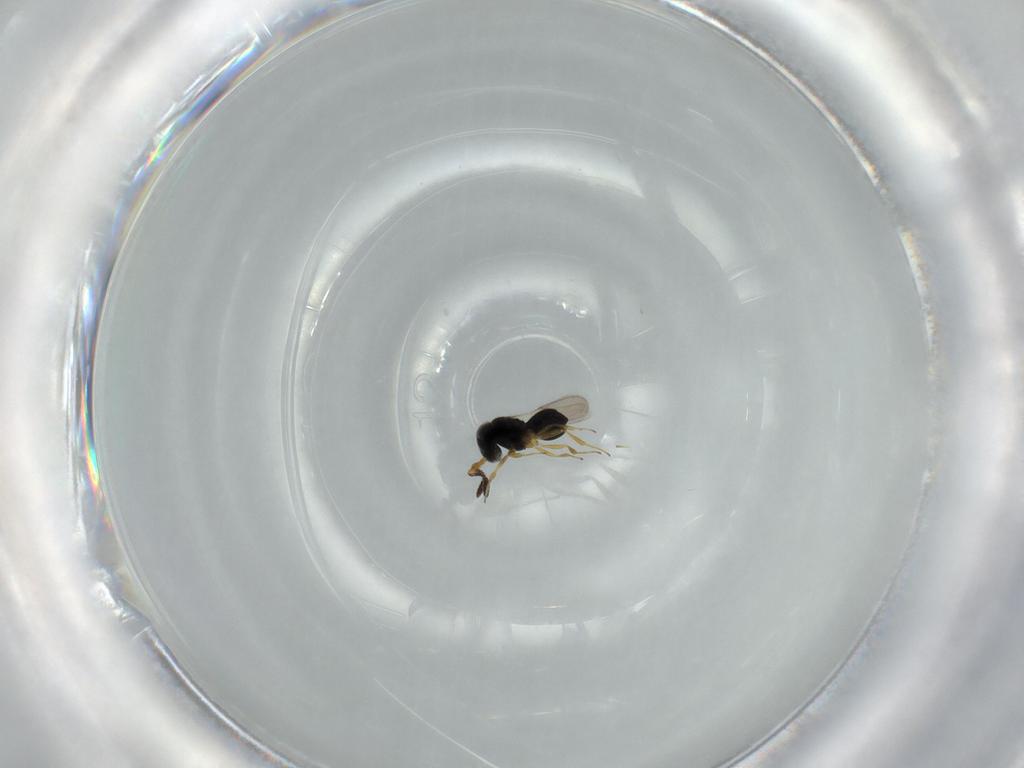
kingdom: Animalia
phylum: Arthropoda
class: Insecta
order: Hymenoptera
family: Scelionidae
